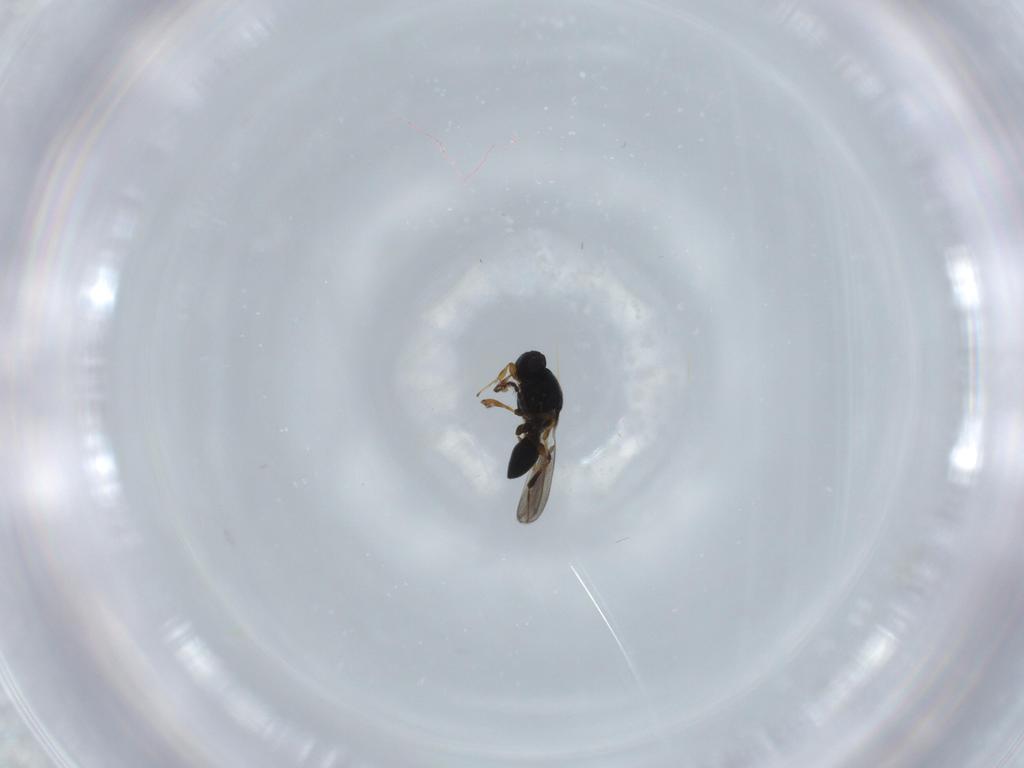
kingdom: Animalia
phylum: Arthropoda
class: Insecta
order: Hymenoptera
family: Platygastridae
